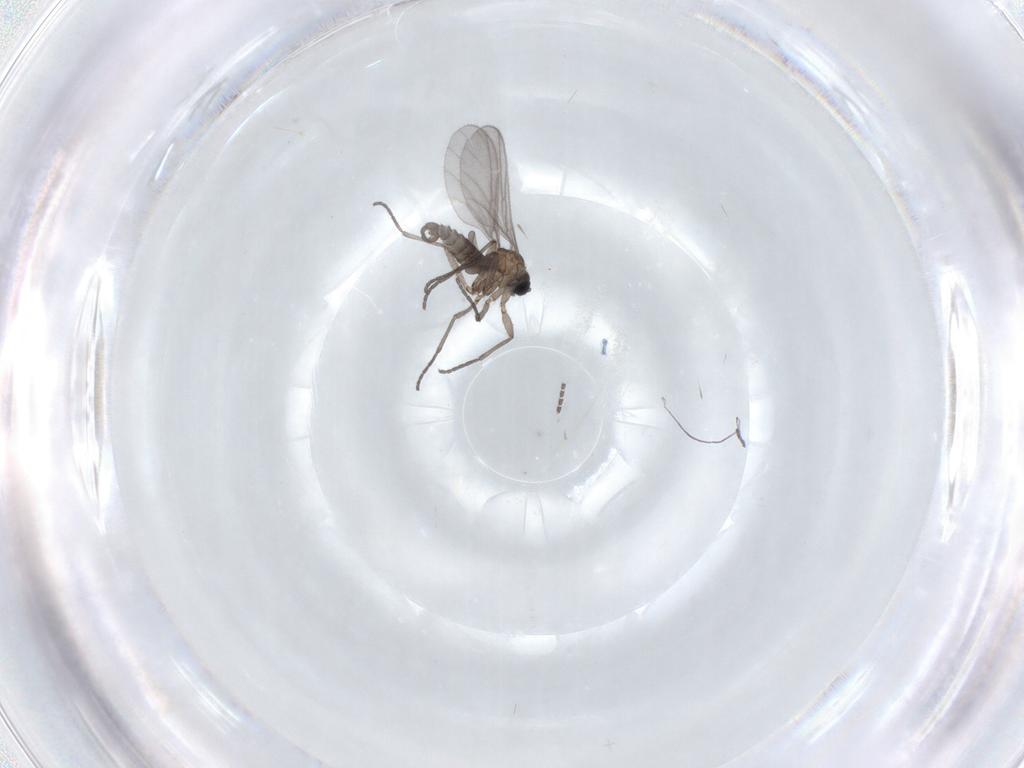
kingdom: Animalia
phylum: Arthropoda
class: Insecta
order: Diptera
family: Sciaridae
